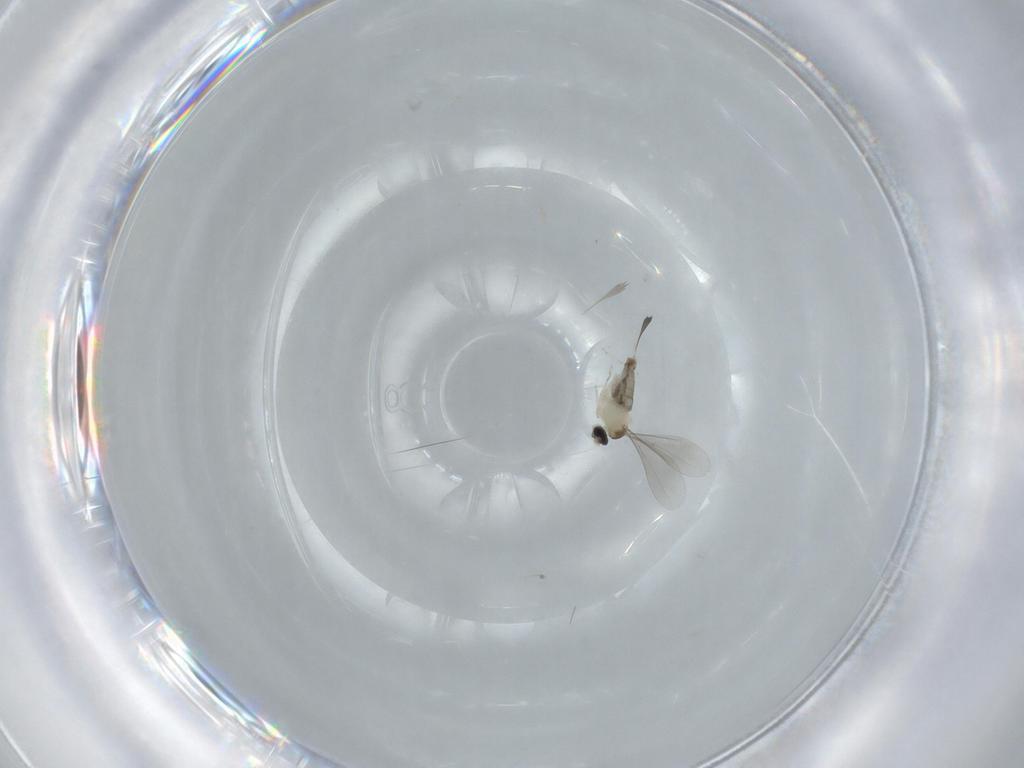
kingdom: Animalia
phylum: Arthropoda
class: Insecta
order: Diptera
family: Cecidomyiidae
